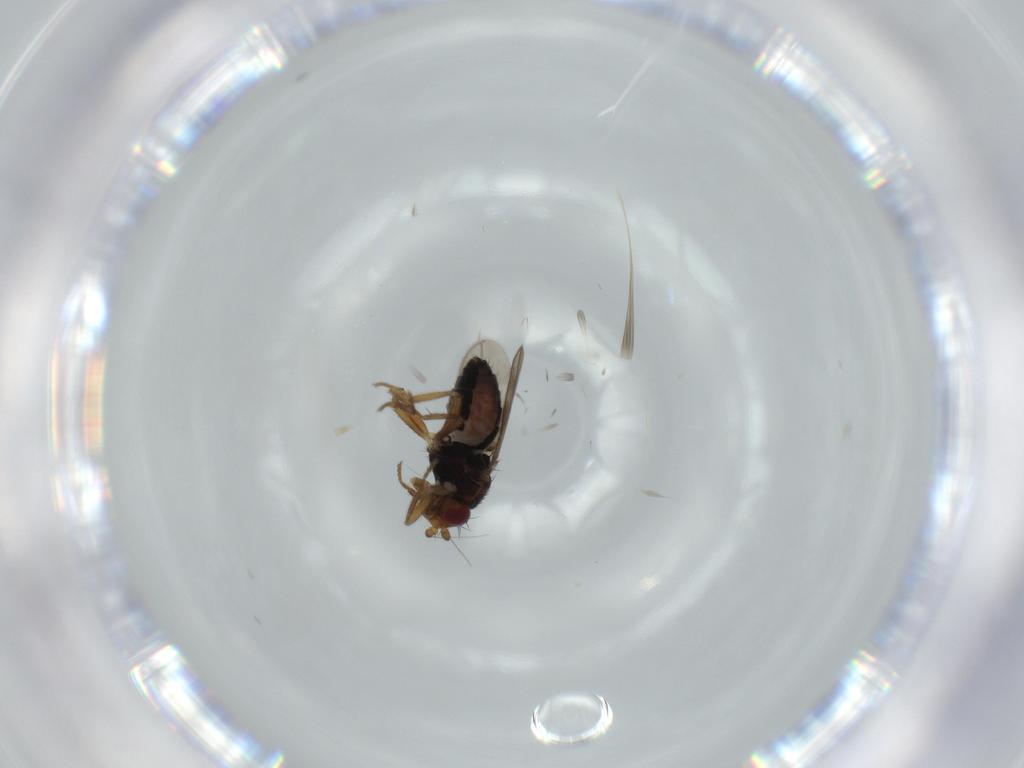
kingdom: Animalia
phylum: Arthropoda
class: Insecta
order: Diptera
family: Sphaeroceridae
